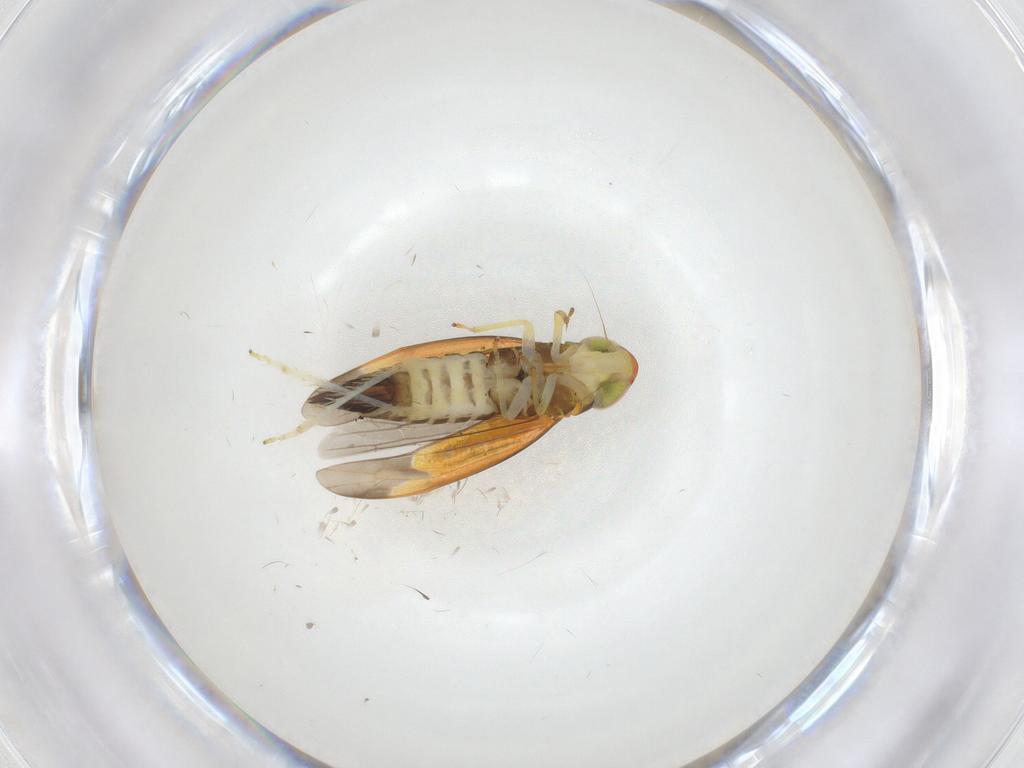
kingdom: Animalia
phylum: Arthropoda
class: Insecta
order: Hemiptera
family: Cicadellidae
